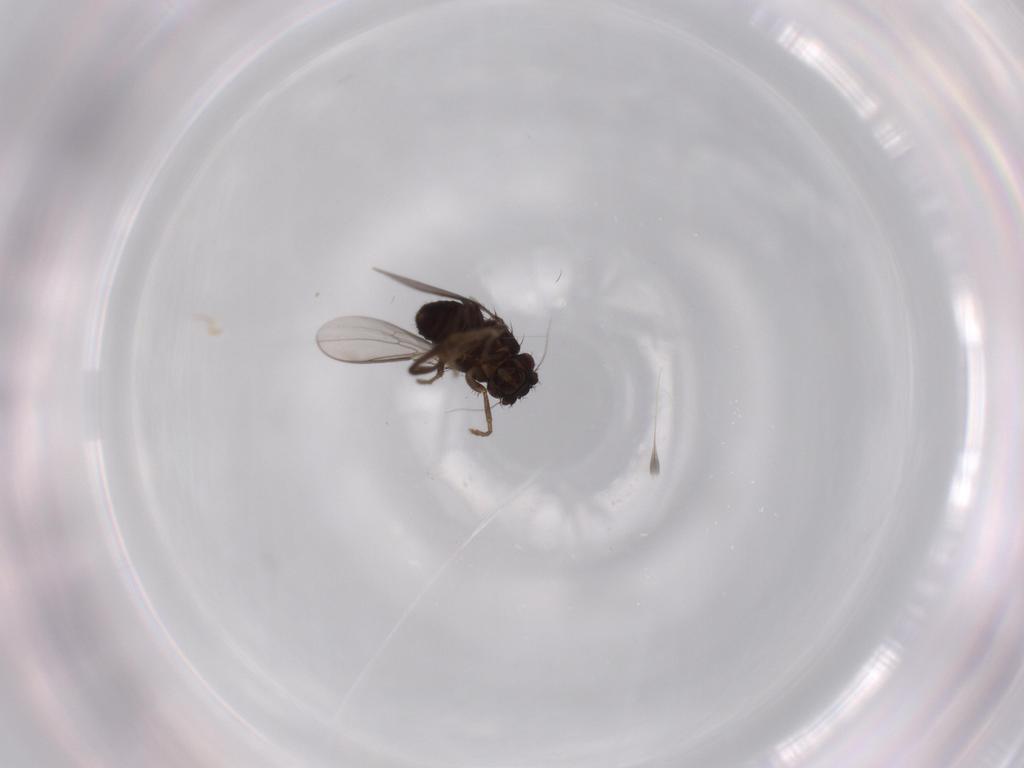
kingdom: Animalia
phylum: Arthropoda
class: Insecta
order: Diptera
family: Sphaeroceridae
